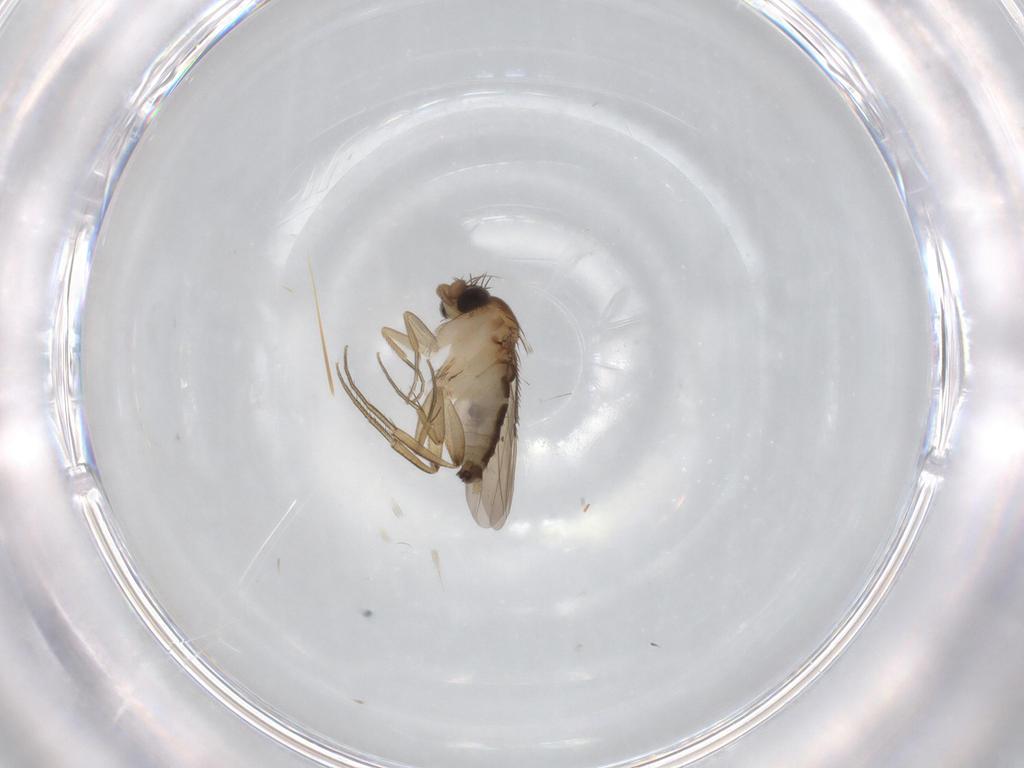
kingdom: Animalia
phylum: Arthropoda
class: Insecta
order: Diptera
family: Phoridae
